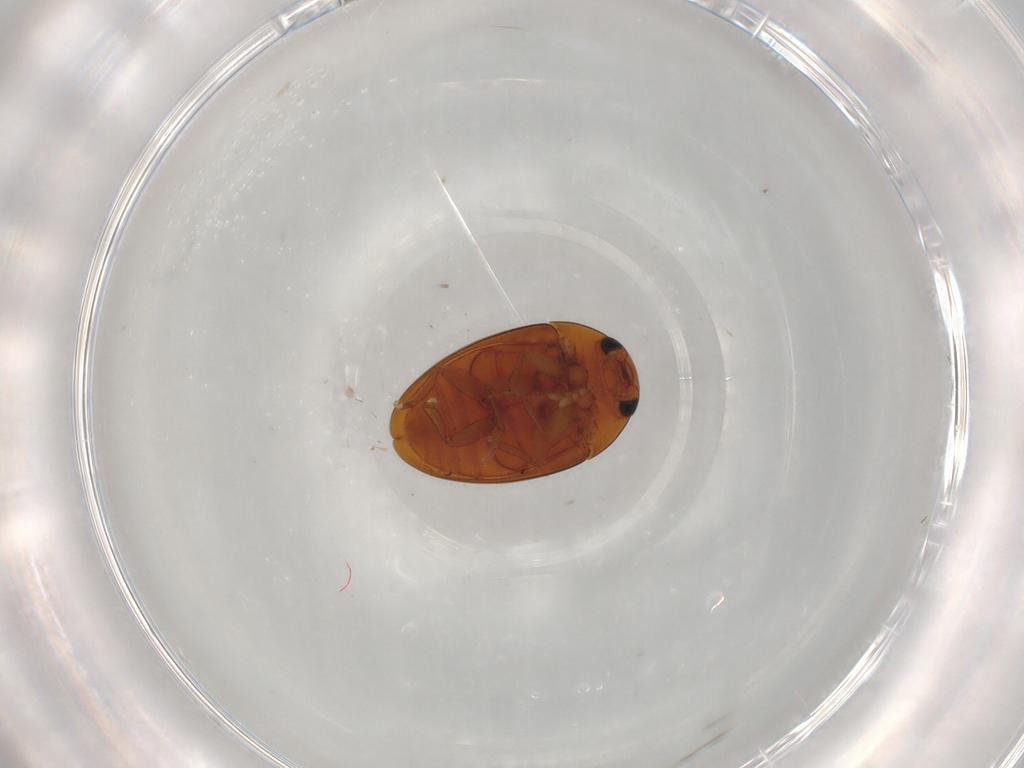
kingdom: Animalia
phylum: Arthropoda
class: Insecta
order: Coleoptera
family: Phalacridae
